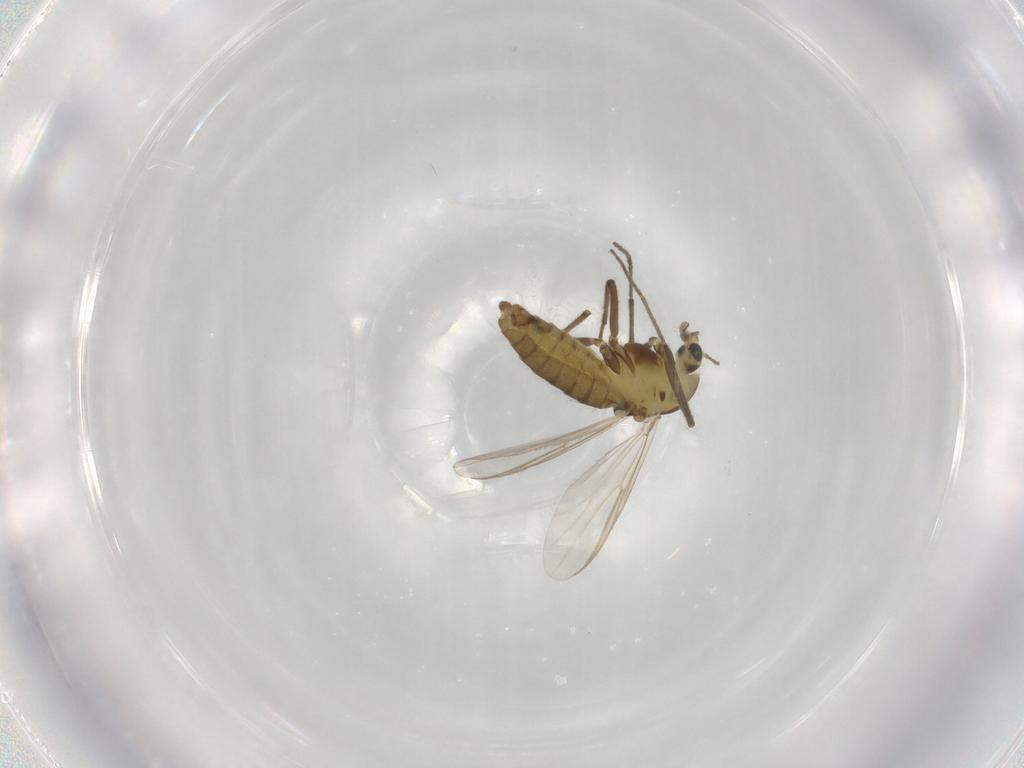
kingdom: Animalia
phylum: Arthropoda
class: Insecta
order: Diptera
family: Chironomidae
